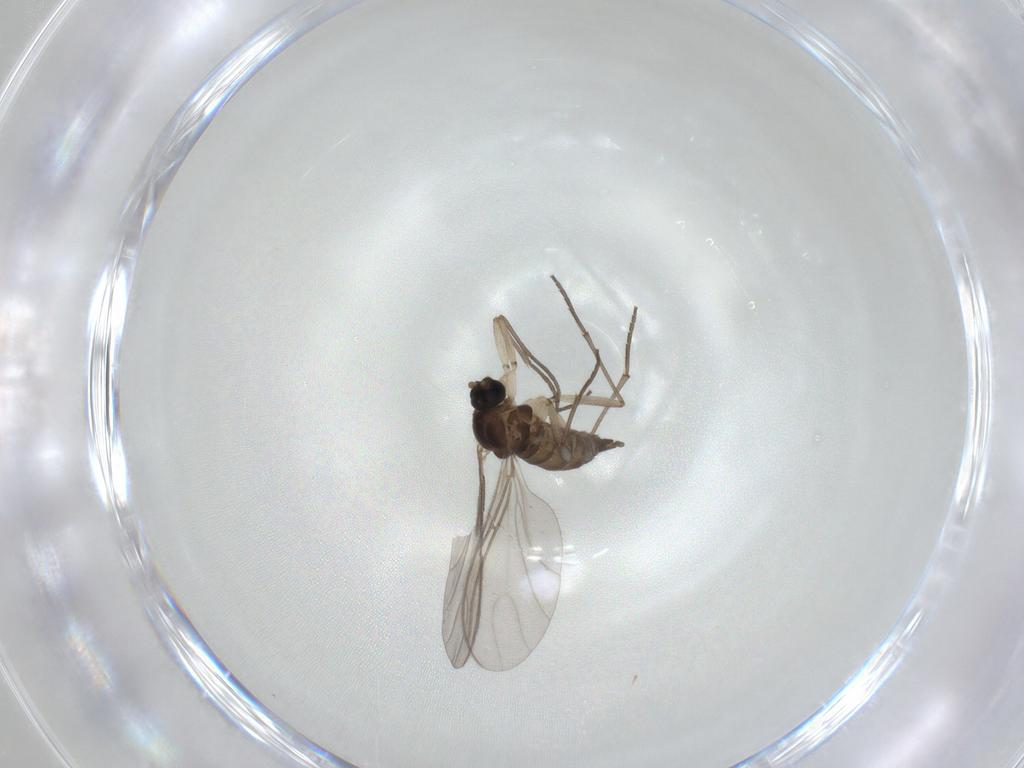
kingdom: Animalia
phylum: Arthropoda
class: Insecta
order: Diptera
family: Sciaridae
